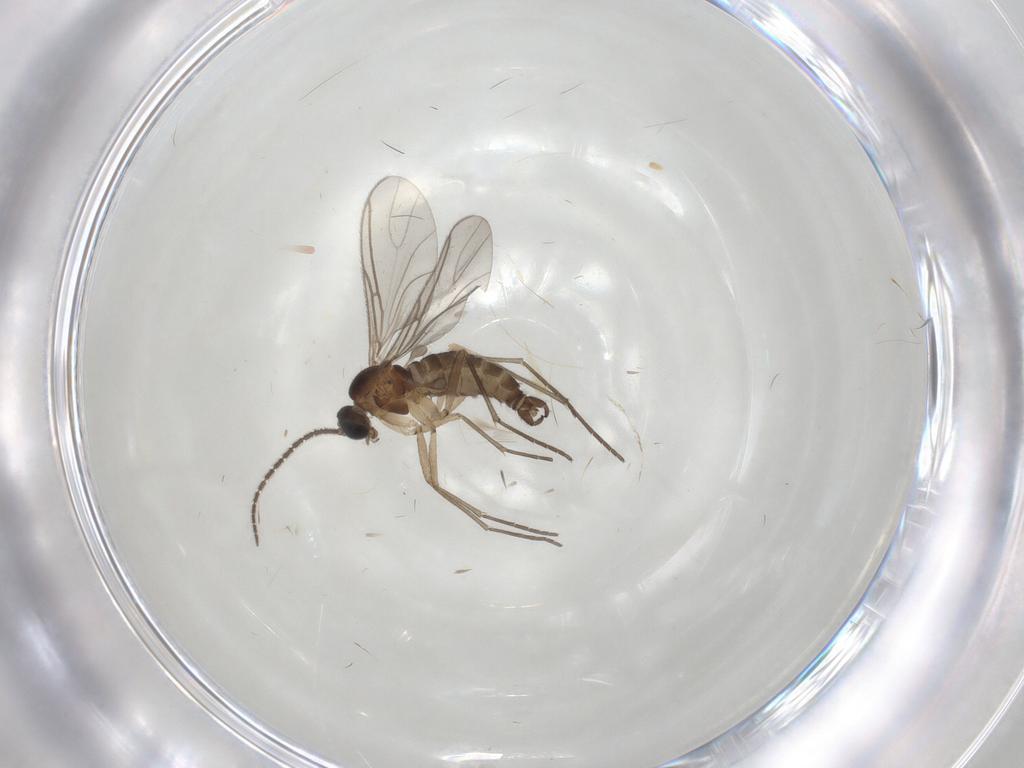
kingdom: Animalia
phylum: Arthropoda
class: Insecta
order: Diptera
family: Sciaridae
